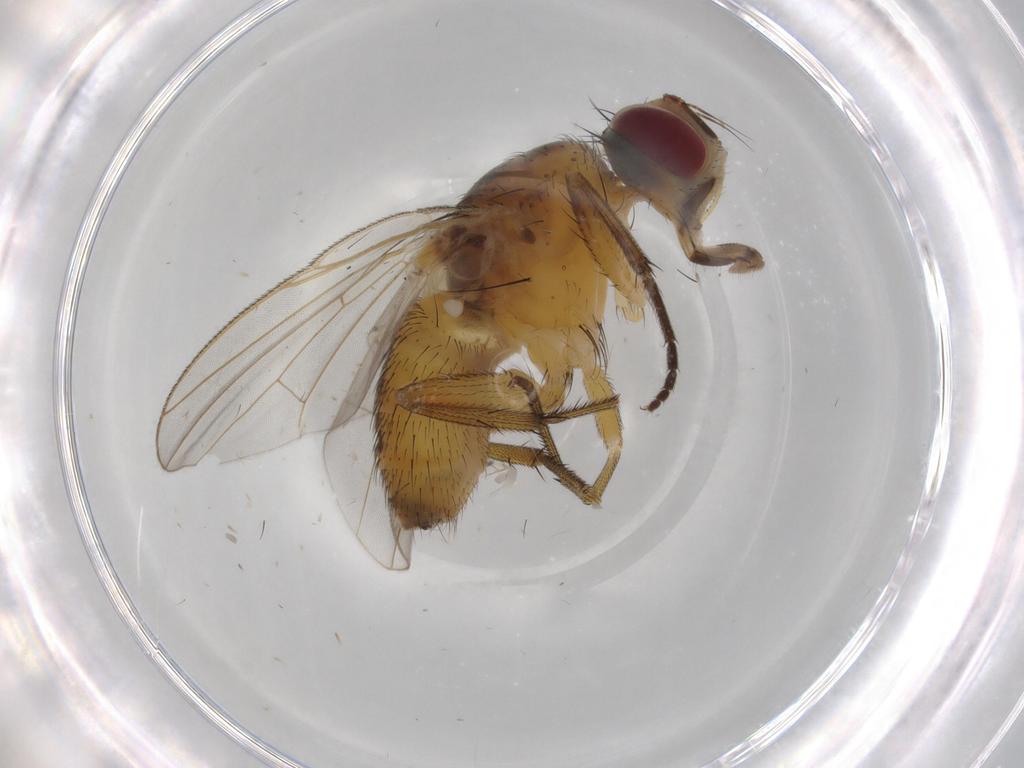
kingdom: Animalia
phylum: Arthropoda
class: Insecta
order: Diptera
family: Muscidae
